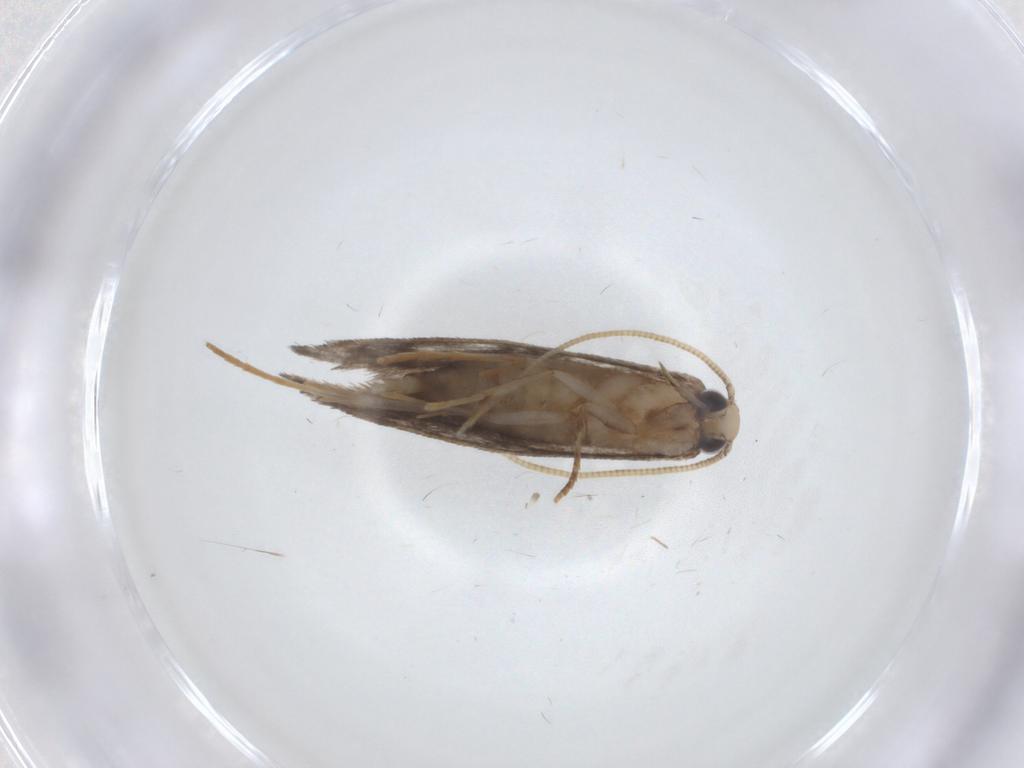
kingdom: Animalia
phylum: Arthropoda
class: Insecta
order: Lepidoptera
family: Tineidae
